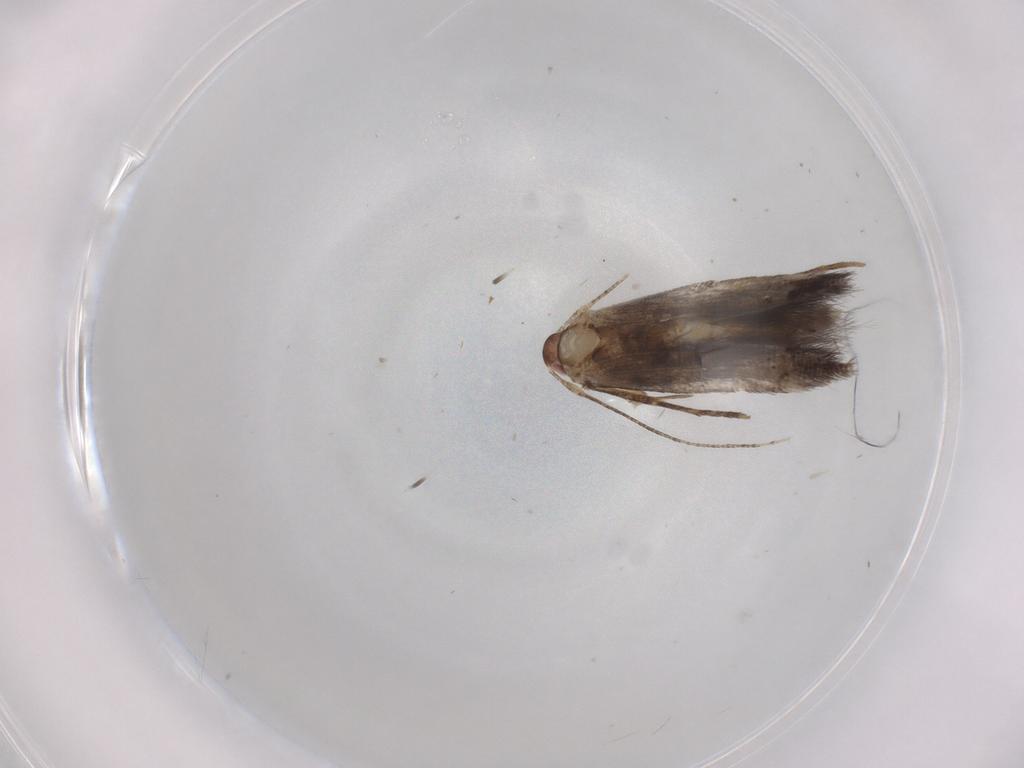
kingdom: Animalia
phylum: Arthropoda
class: Insecta
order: Lepidoptera
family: Cosmopterigidae
